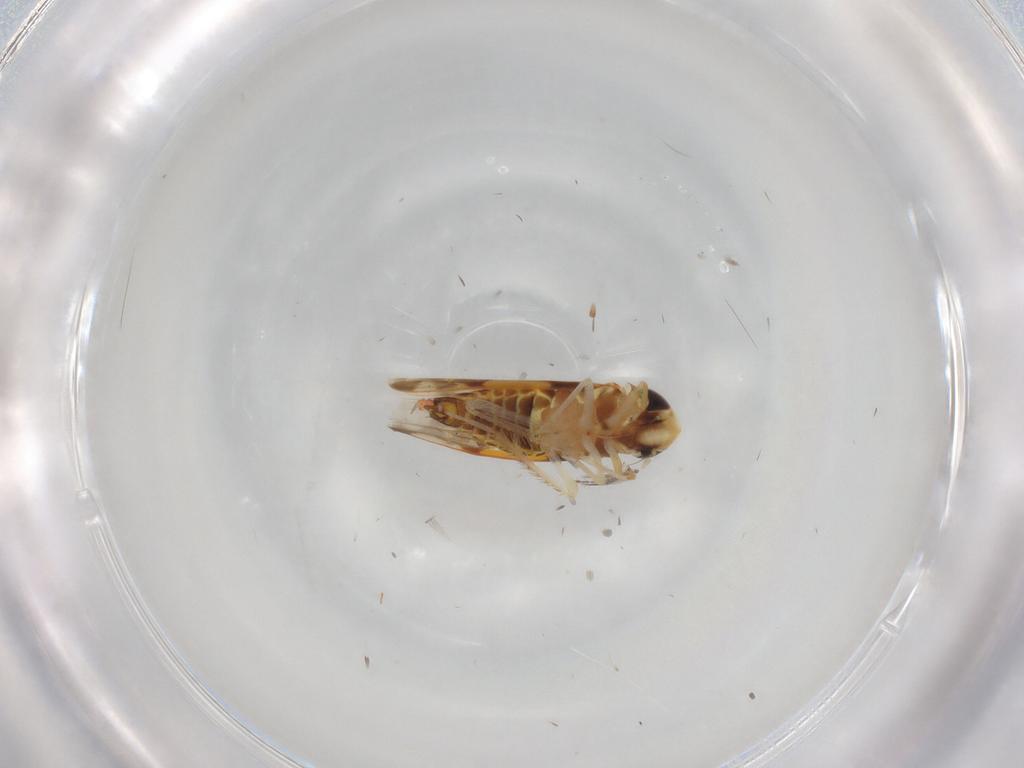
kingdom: Animalia
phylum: Arthropoda
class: Insecta
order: Hemiptera
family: Cicadellidae
